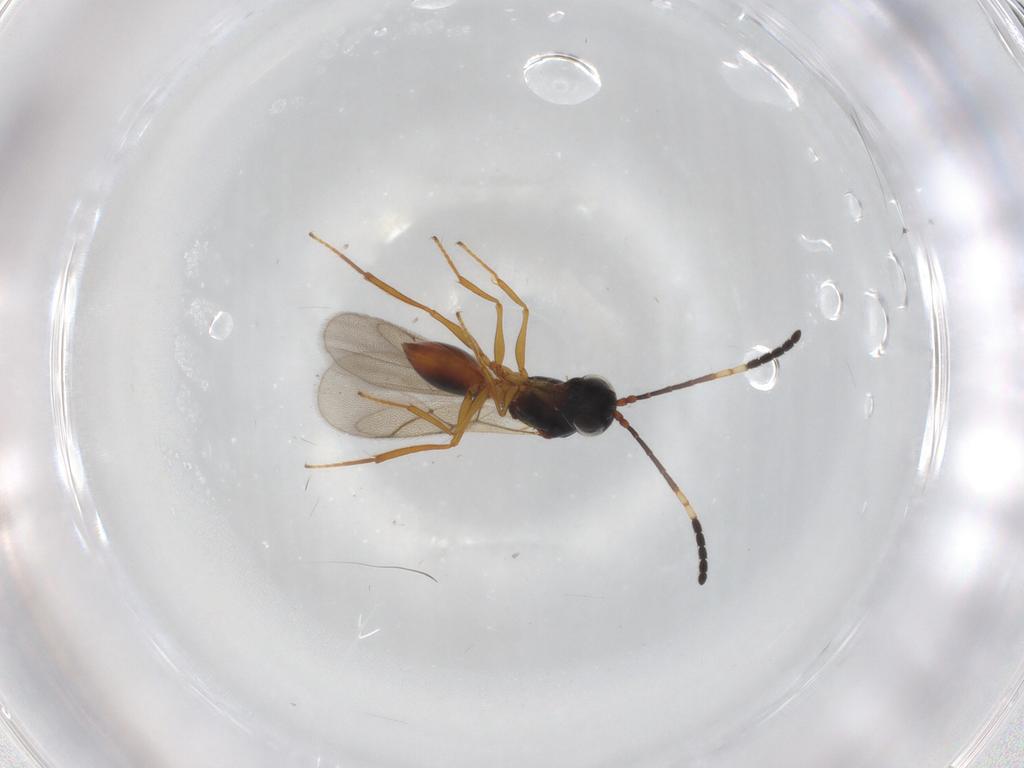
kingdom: Animalia
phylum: Arthropoda
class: Insecta
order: Hymenoptera
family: Figitidae
